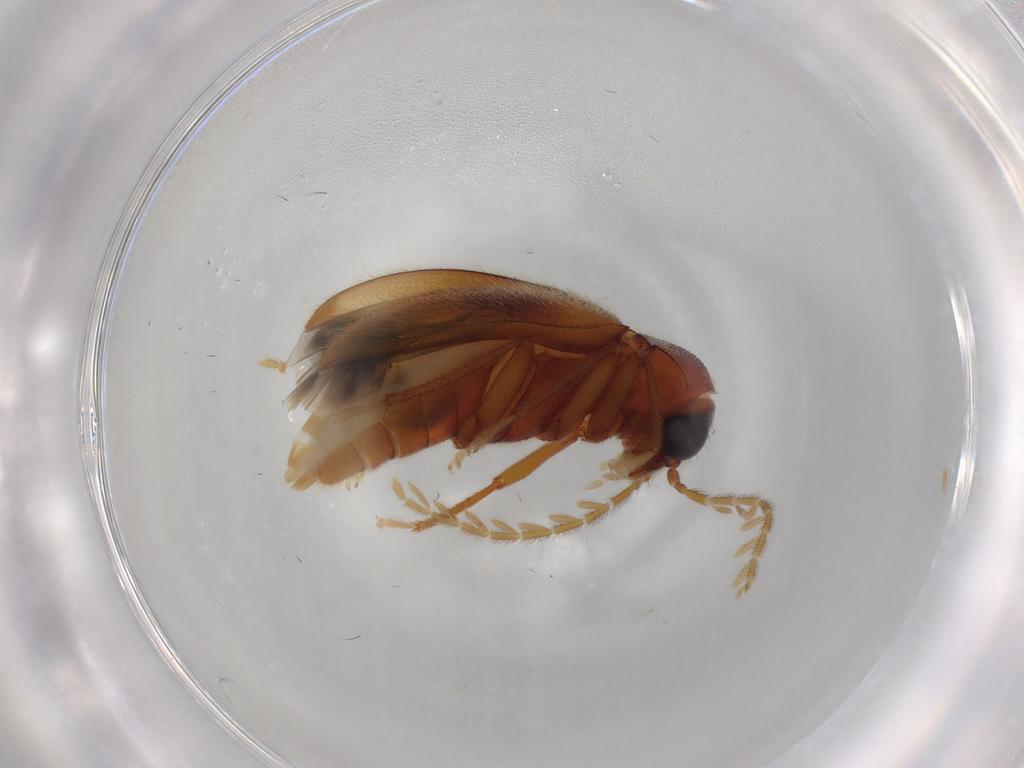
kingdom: Animalia
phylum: Arthropoda
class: Insecta
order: Coleoptera
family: Ptilodactylidae
